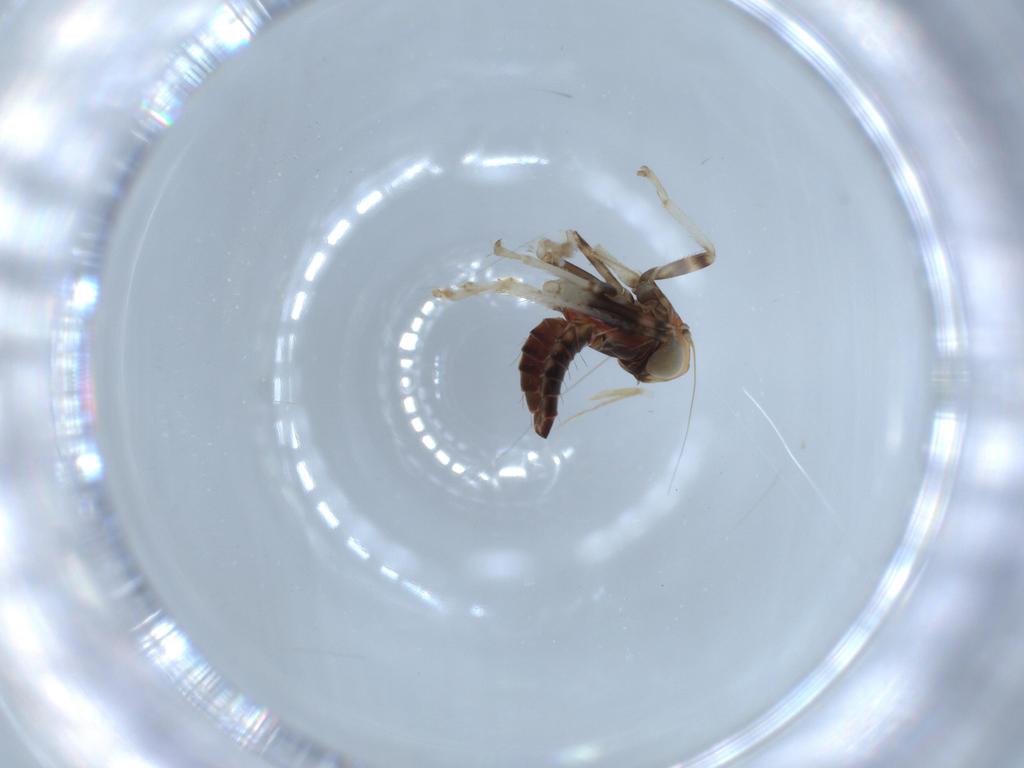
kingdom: Animalia
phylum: Arthropoda
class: Insecta
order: Hemiptera
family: Cicadellidae
